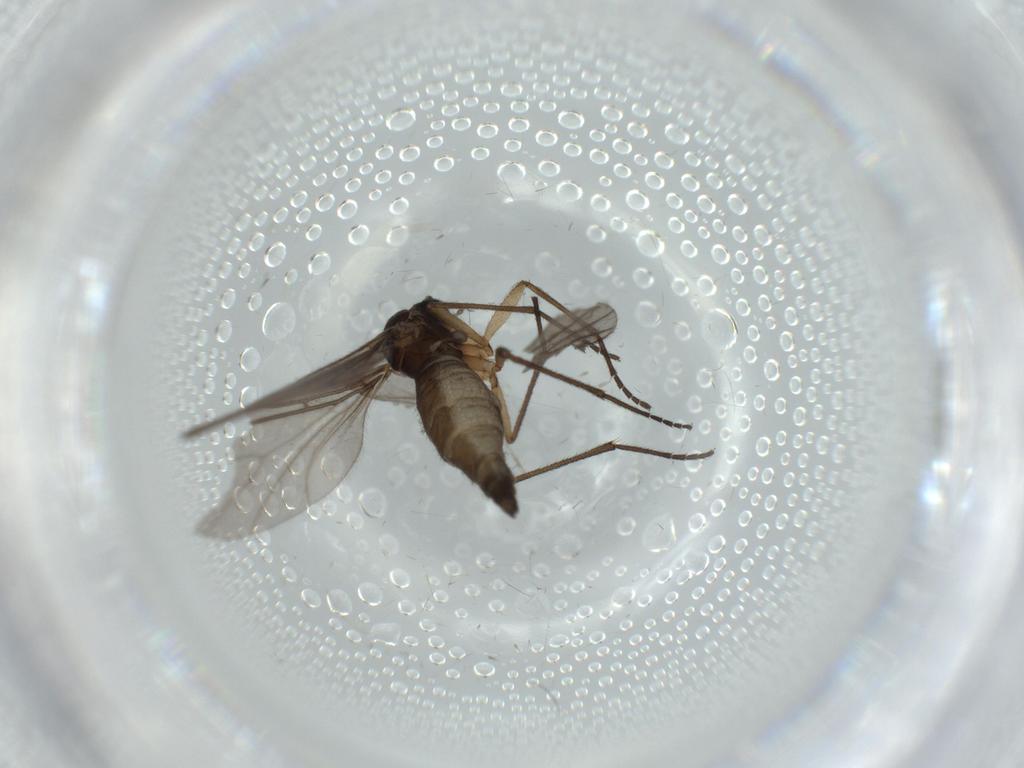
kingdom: Animalia
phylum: Arthropoda
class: Insecta
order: Diptera
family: Sciaridae
